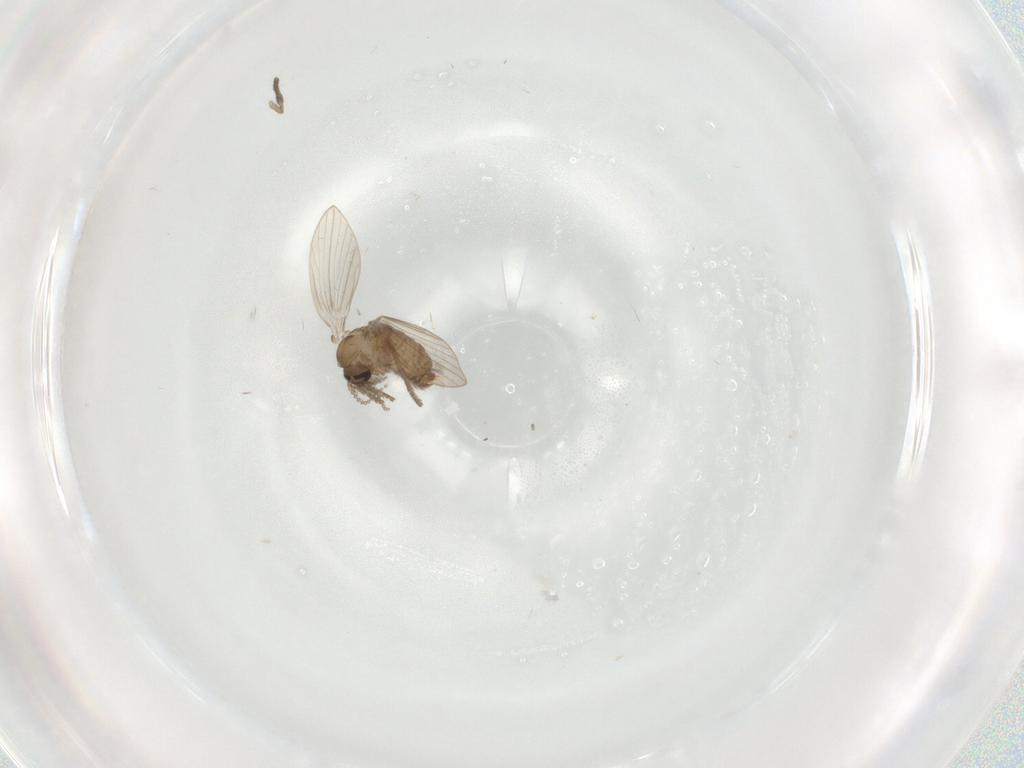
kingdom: Animalia
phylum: Arthropoda
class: Insecta
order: Diptera
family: Psychodidae
